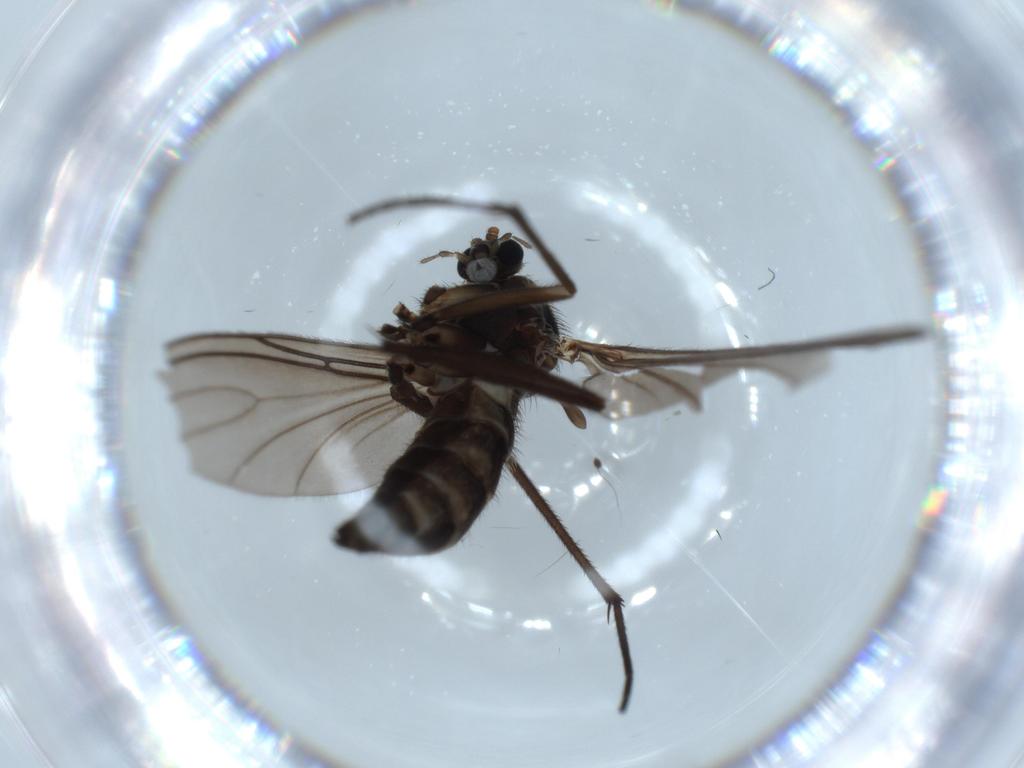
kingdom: Animalia
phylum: Arthropoda
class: Insecta
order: Diptera
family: Sciaridae
